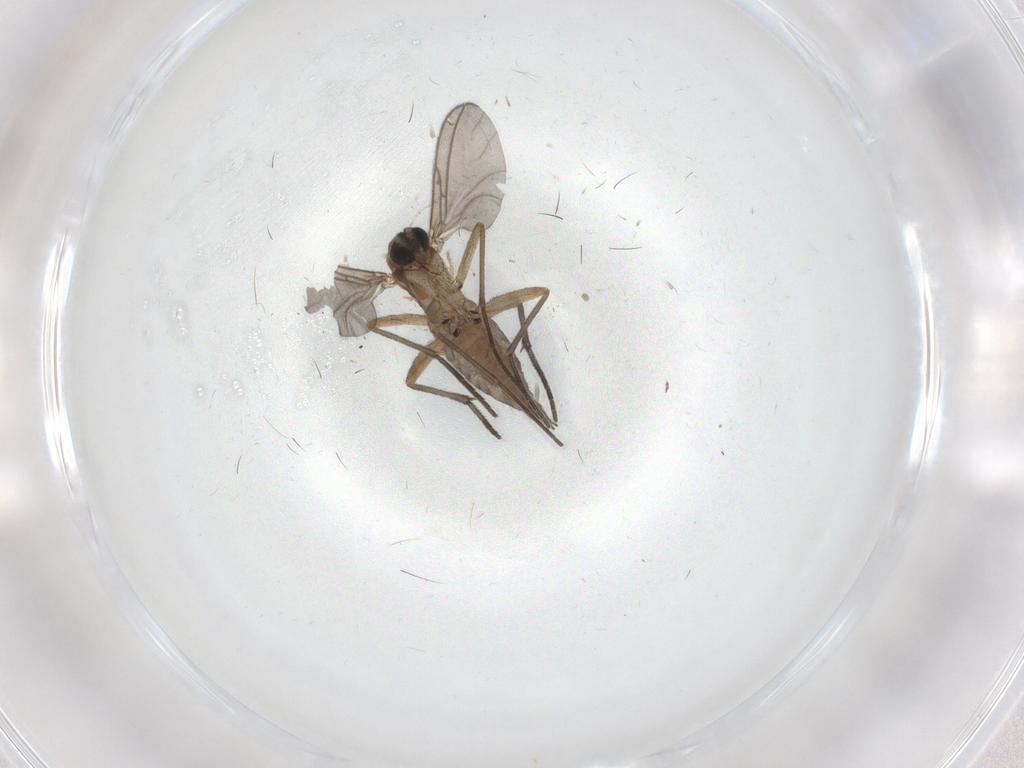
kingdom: Animalia
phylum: Arthropoda
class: Insecta
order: Diptera
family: Sciaridae
